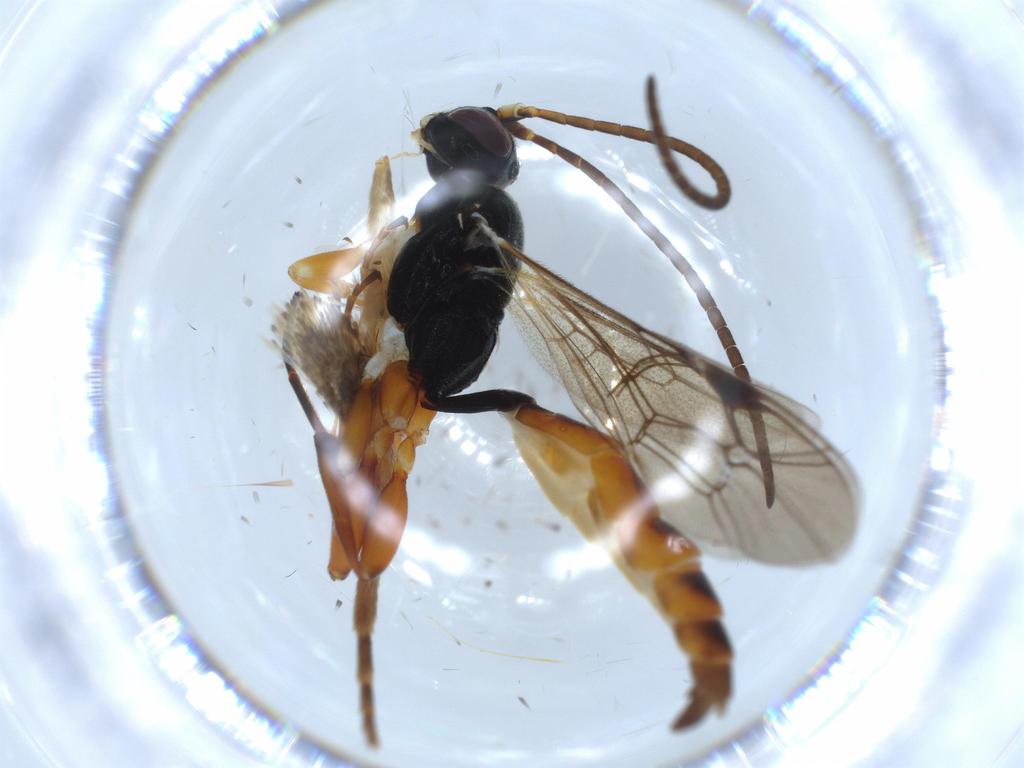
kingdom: Animalia
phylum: Arthropoda
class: Insecta
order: Hymenoptera
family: Ichneumonidae
